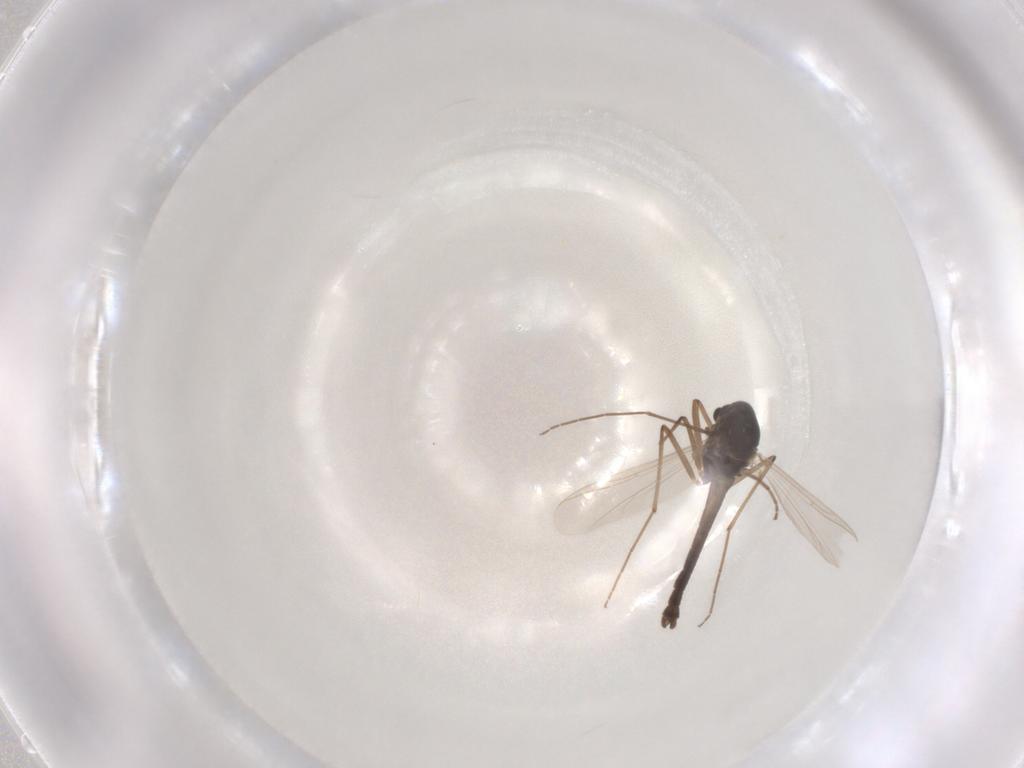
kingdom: Animalia
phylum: Arthropoda
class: Insecta
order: Diptera
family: Chironomidae
